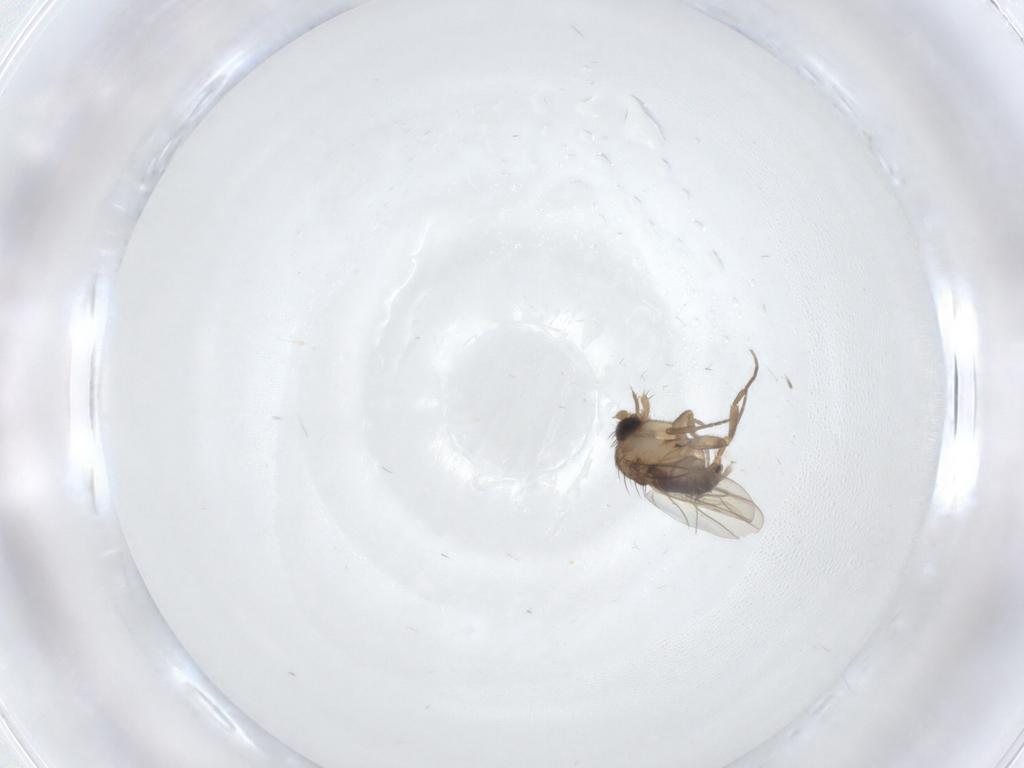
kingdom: Animalia
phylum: Arthropoda
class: Insecta
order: Diptera
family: Phoridae
